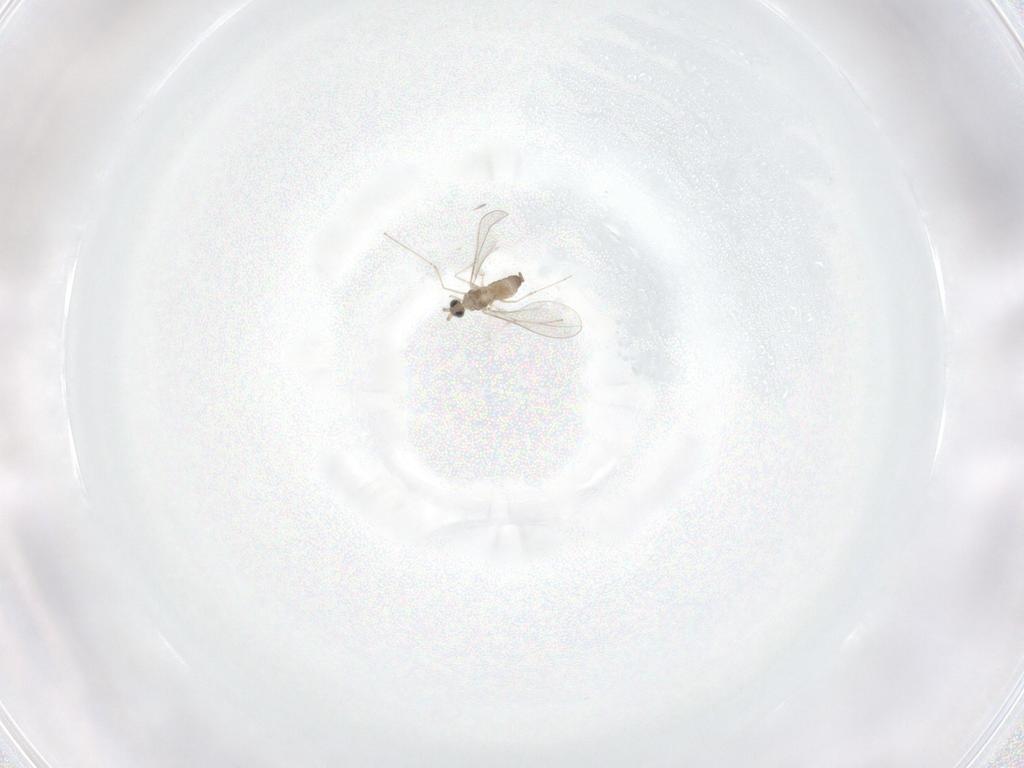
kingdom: Animalia
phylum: Arthropoda
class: Insecta
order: Diptera
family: Cecidomyiidae
